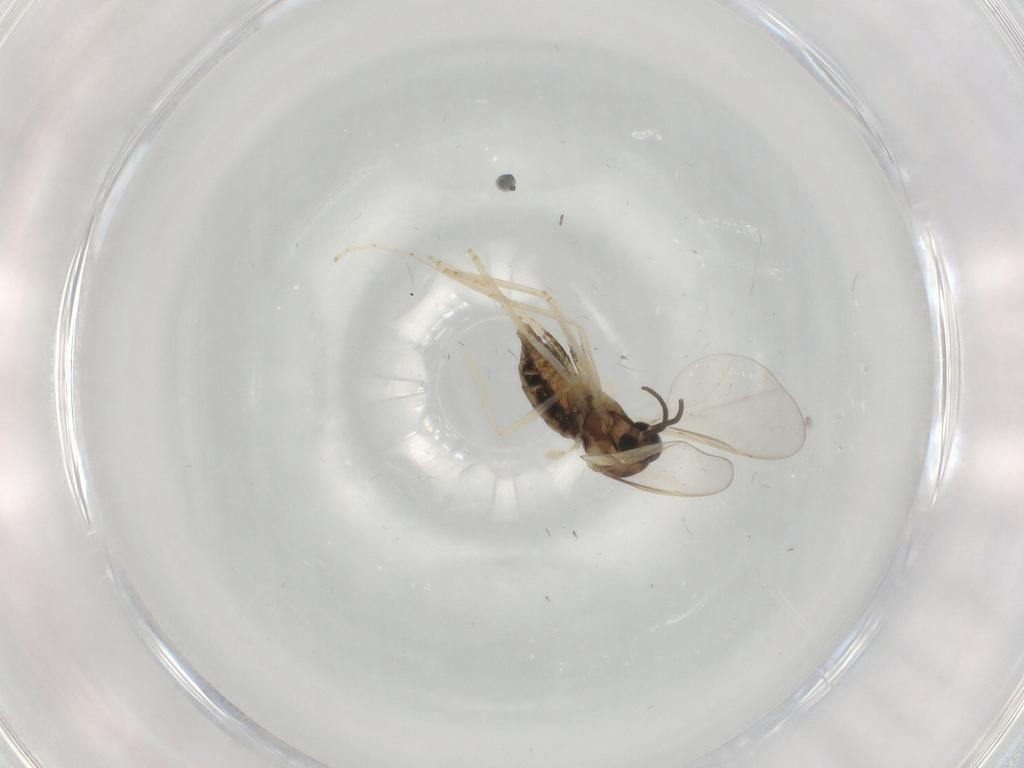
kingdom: Animalia
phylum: Arthropoda
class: Insecta
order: Diptera
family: Cecidomyiidae
